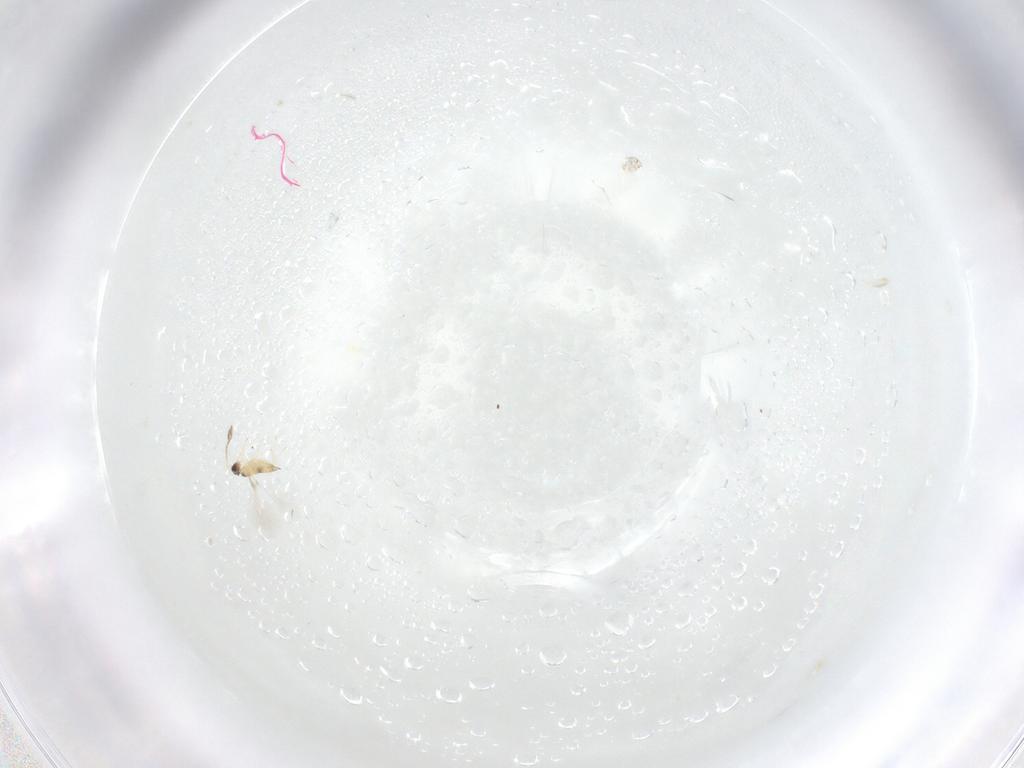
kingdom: Animalia
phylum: Arthropoda
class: Insecta
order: Hymenoptera
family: Mymaridae
